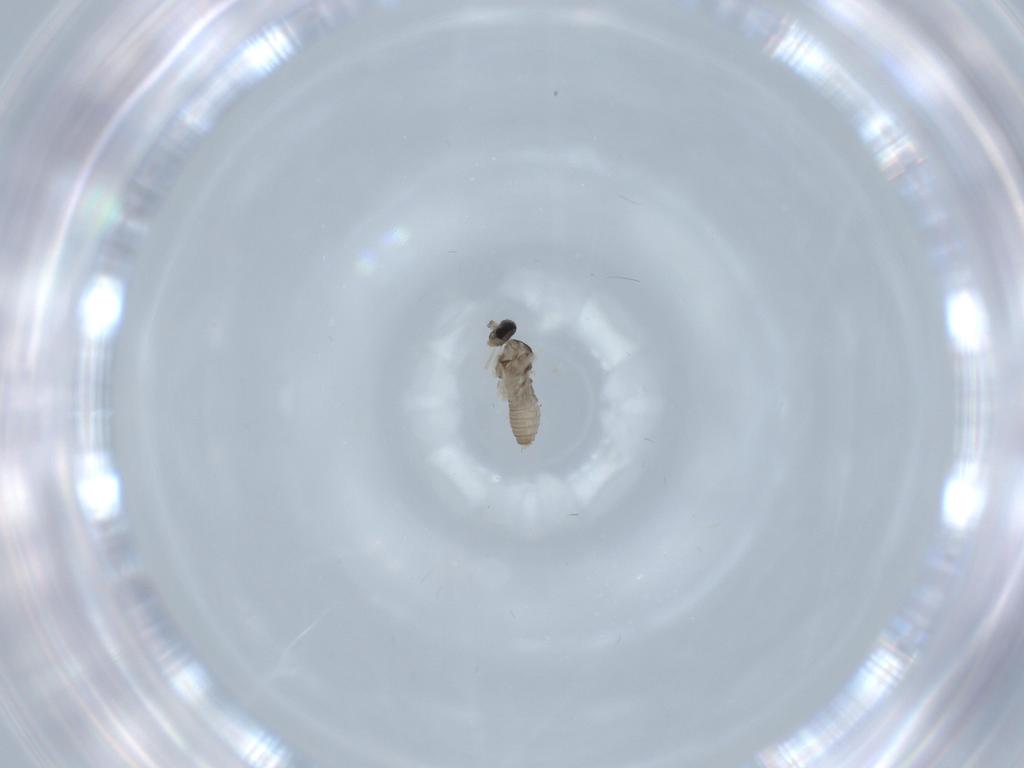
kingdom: Animalia
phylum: Arthropoda
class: Insecta
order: Diptera
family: Cecidomyiidae
